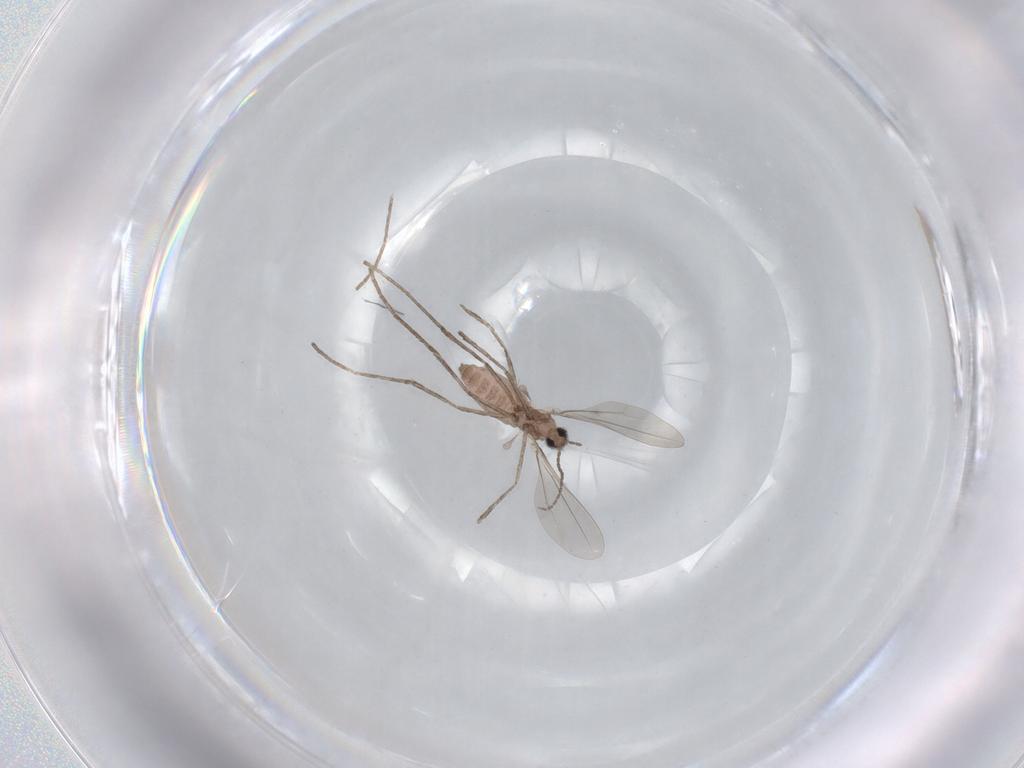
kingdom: Animalia
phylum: Arthropoda
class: Insecta
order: Diptera
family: Cecidomyiidae
